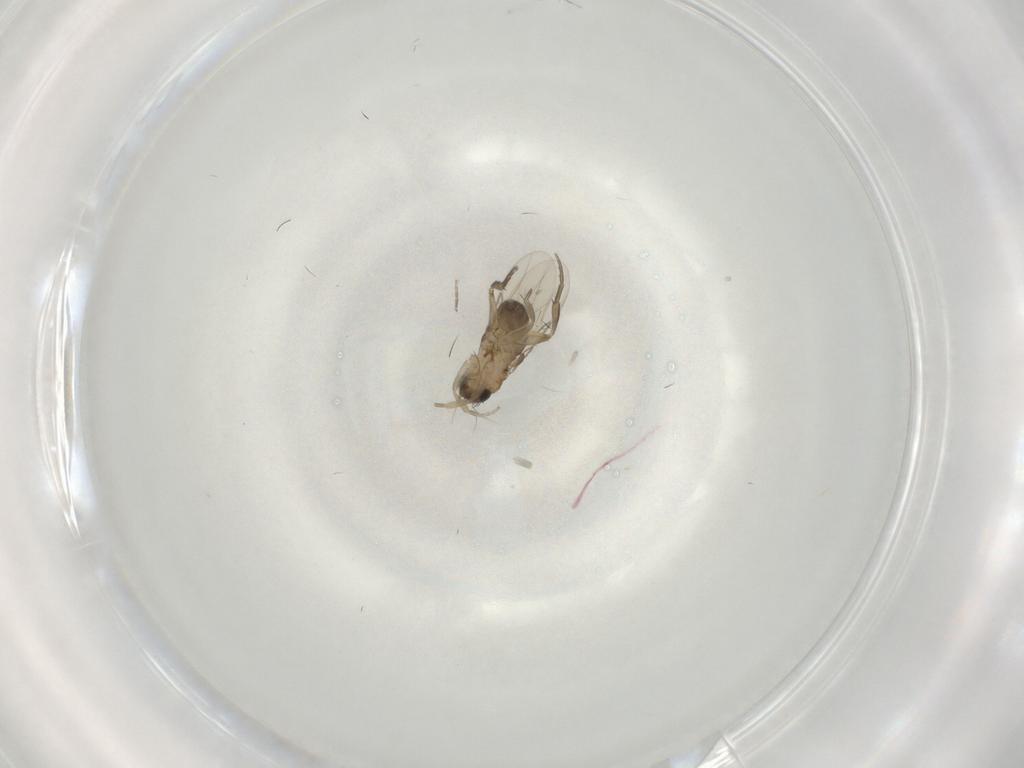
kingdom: Animalia
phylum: Arthropoda
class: Insecta
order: Diptera
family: Phoridae
